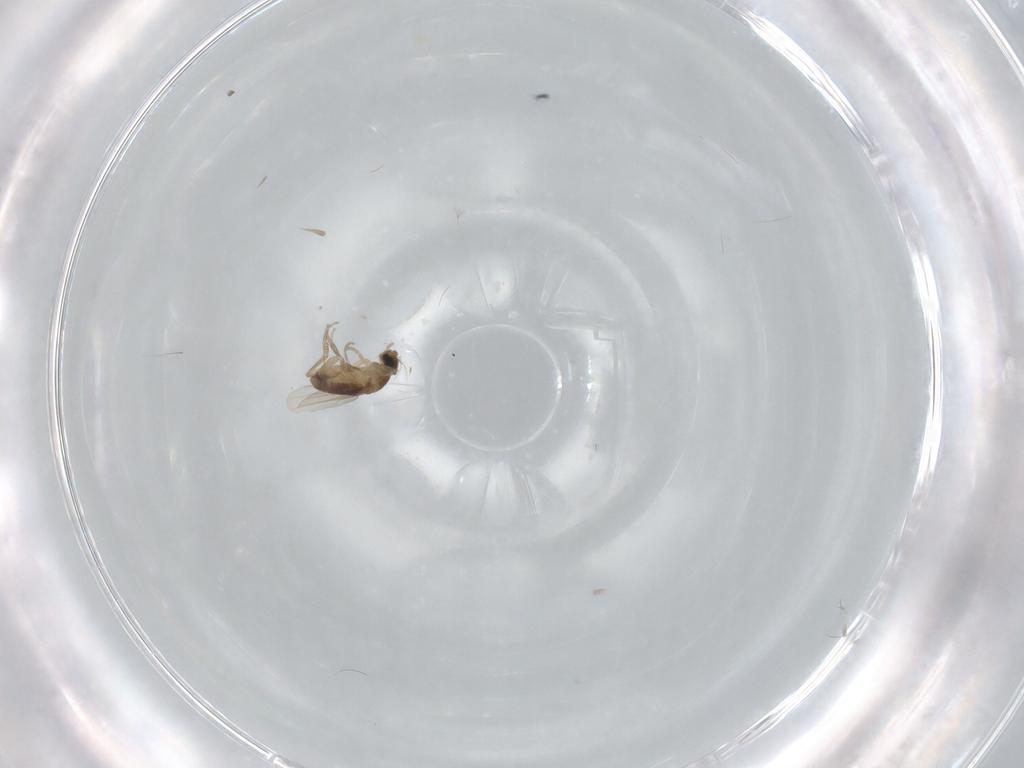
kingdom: Animalia
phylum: Arthropoda
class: Insecta
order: Diptera
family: Phoridae
